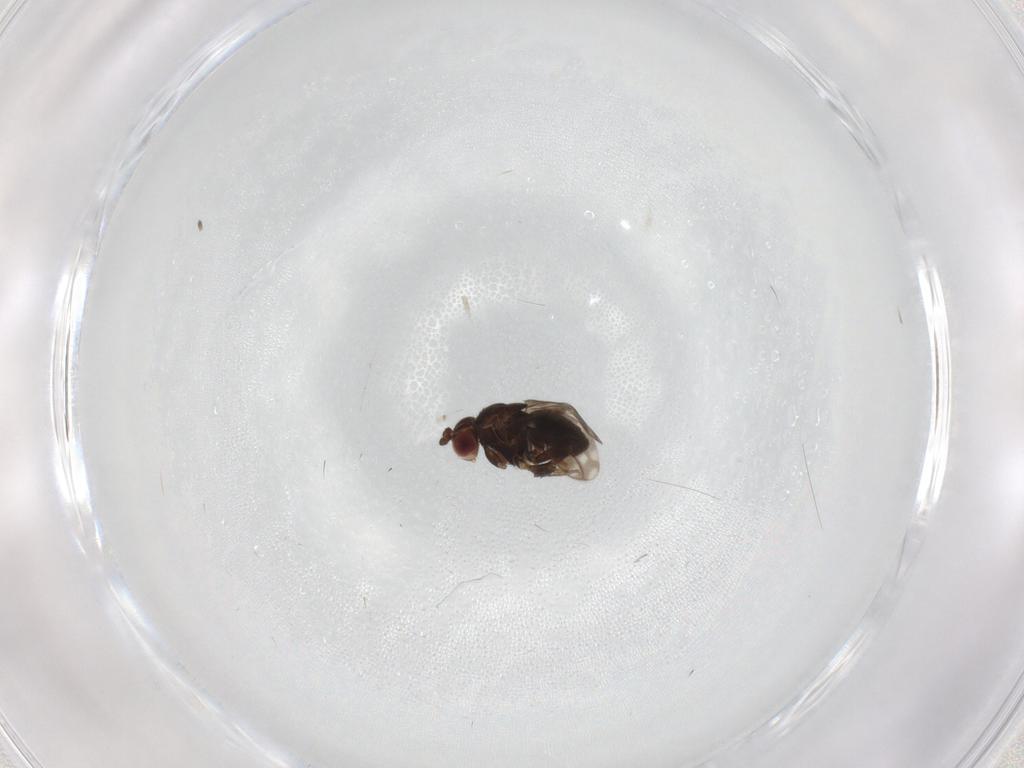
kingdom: Animalia
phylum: Arthropoda
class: Insecta
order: Diptera
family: Sphaeroceridae
